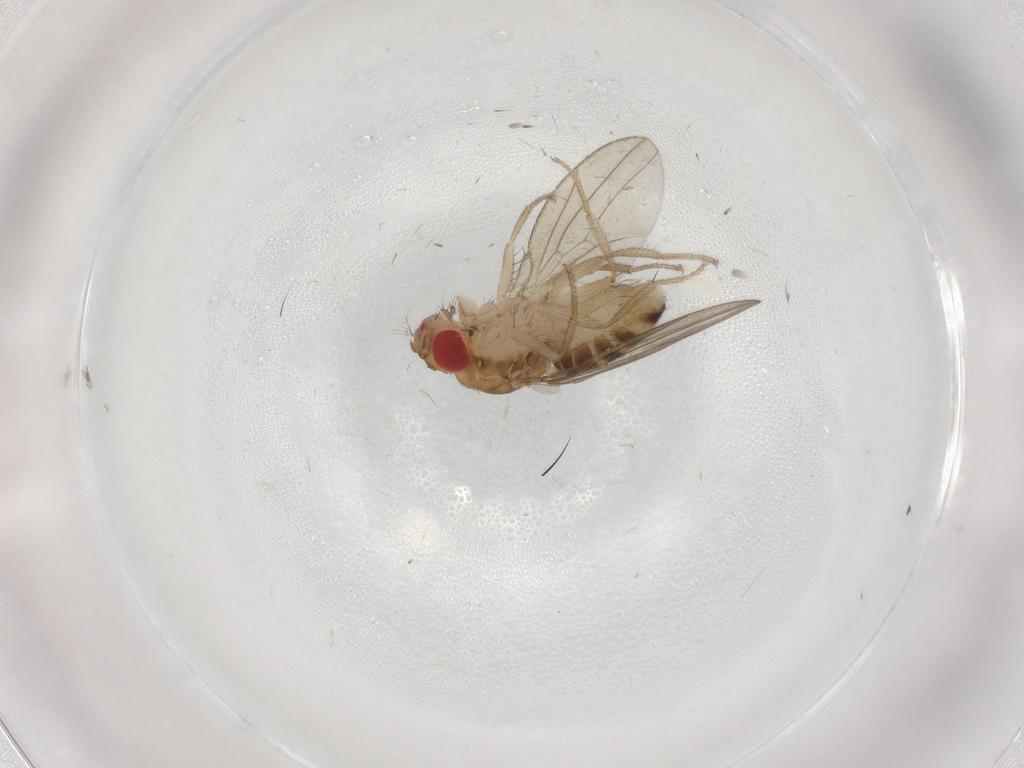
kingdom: Animalia
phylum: Arthropoda
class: Insecta
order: Diptera
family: Drosophilidae
